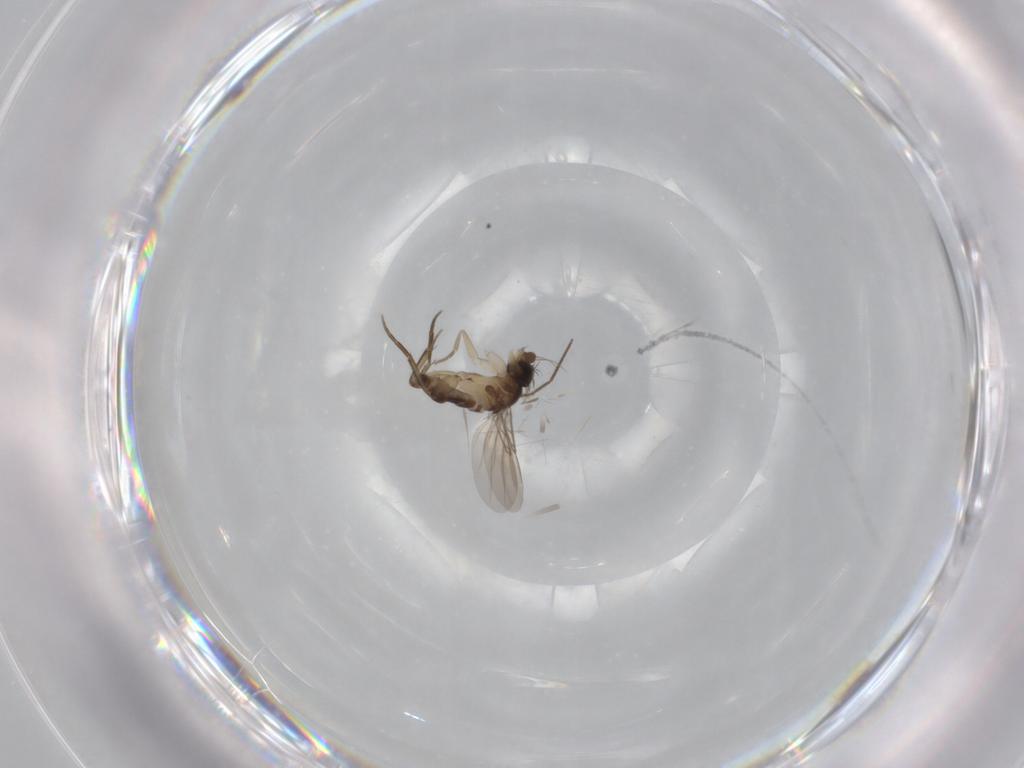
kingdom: Animalia
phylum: Arthropoda
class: Insecta
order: Diptera
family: Phoridae
